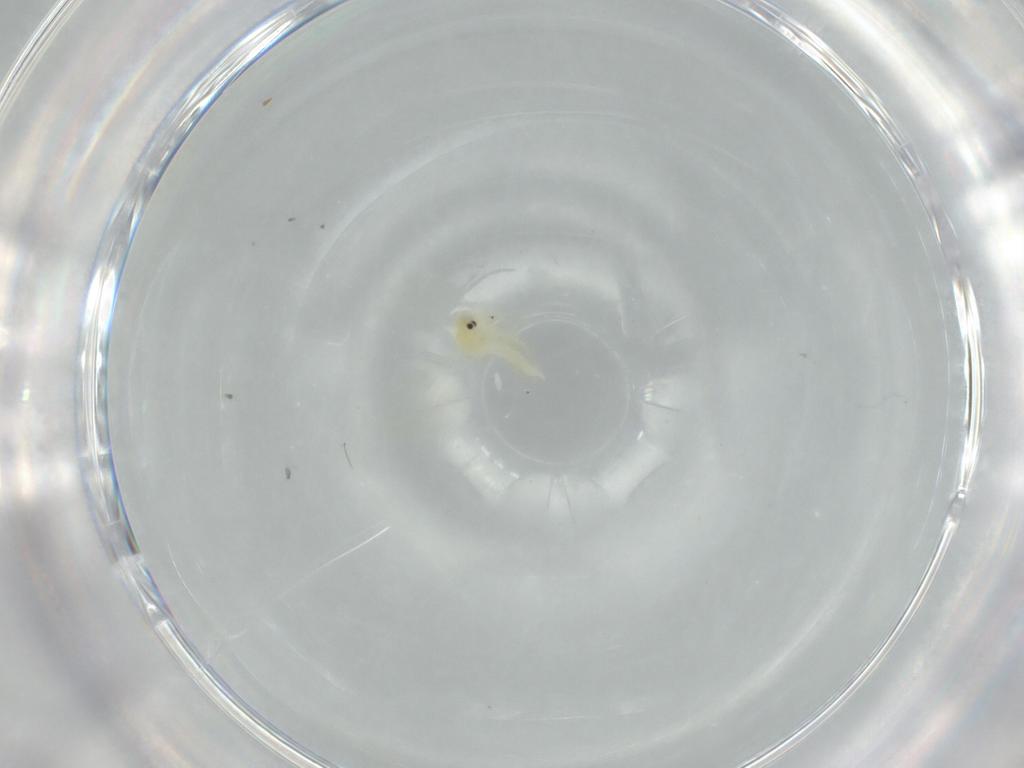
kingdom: Animalia
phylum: Arthropoda
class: Insecta
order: Hemiptera
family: Aleyrodidae
